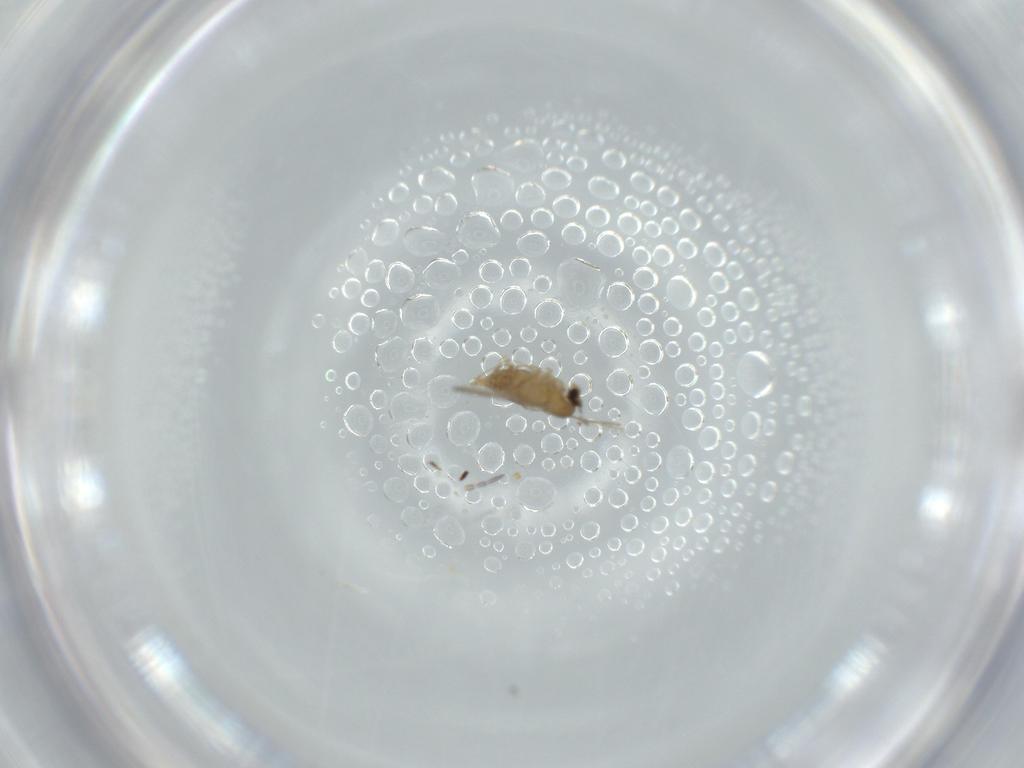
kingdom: Animalia
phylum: Arthropoda
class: Insecta
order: Diptera
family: Cecidomyiidae
